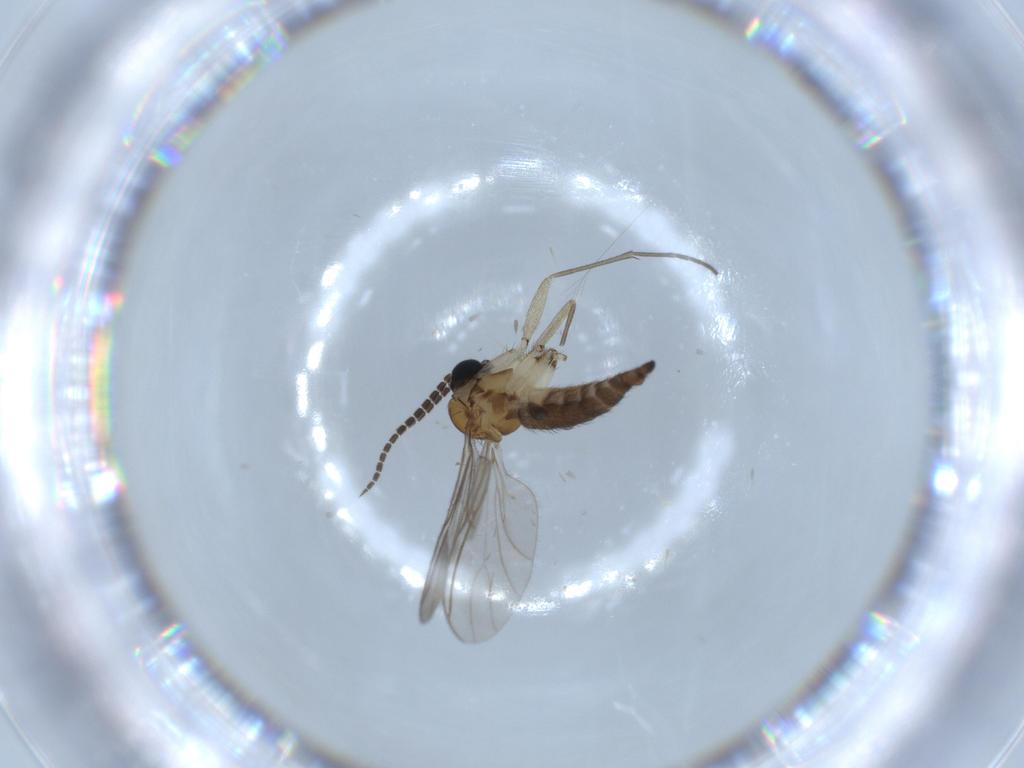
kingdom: Animalia
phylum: Arthropoda
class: Insecta
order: Diptera
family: Sciaridae
